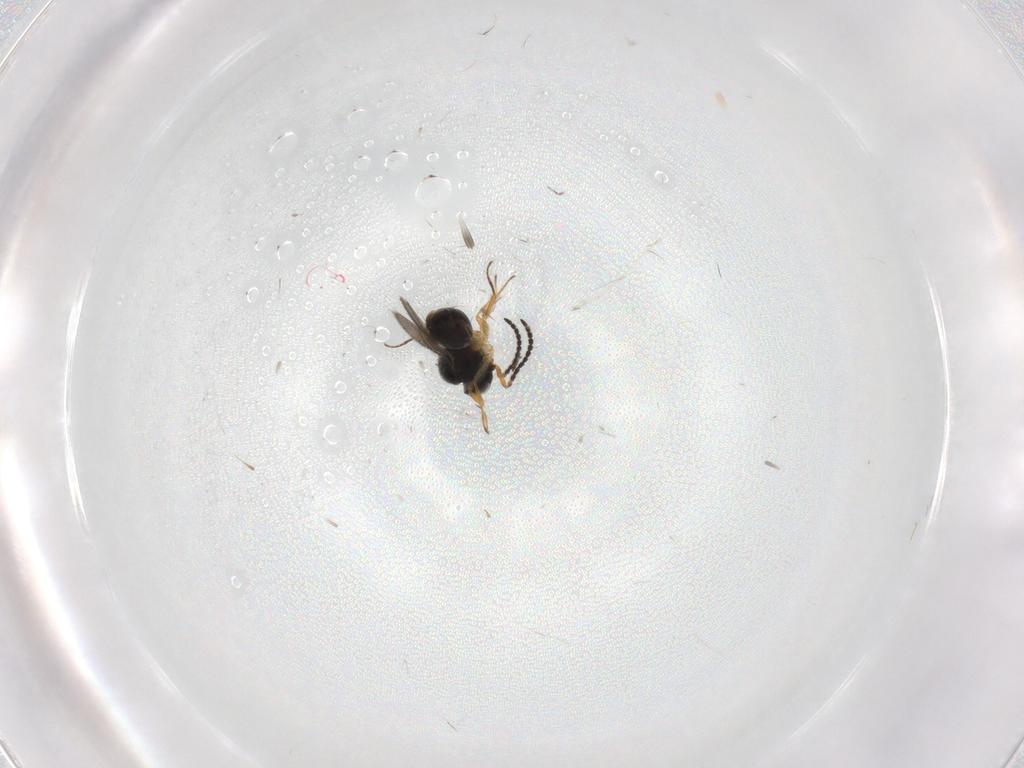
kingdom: Animalia
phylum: Arthropoda
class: Insecta
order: Hymenoptera
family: Scelionidae
